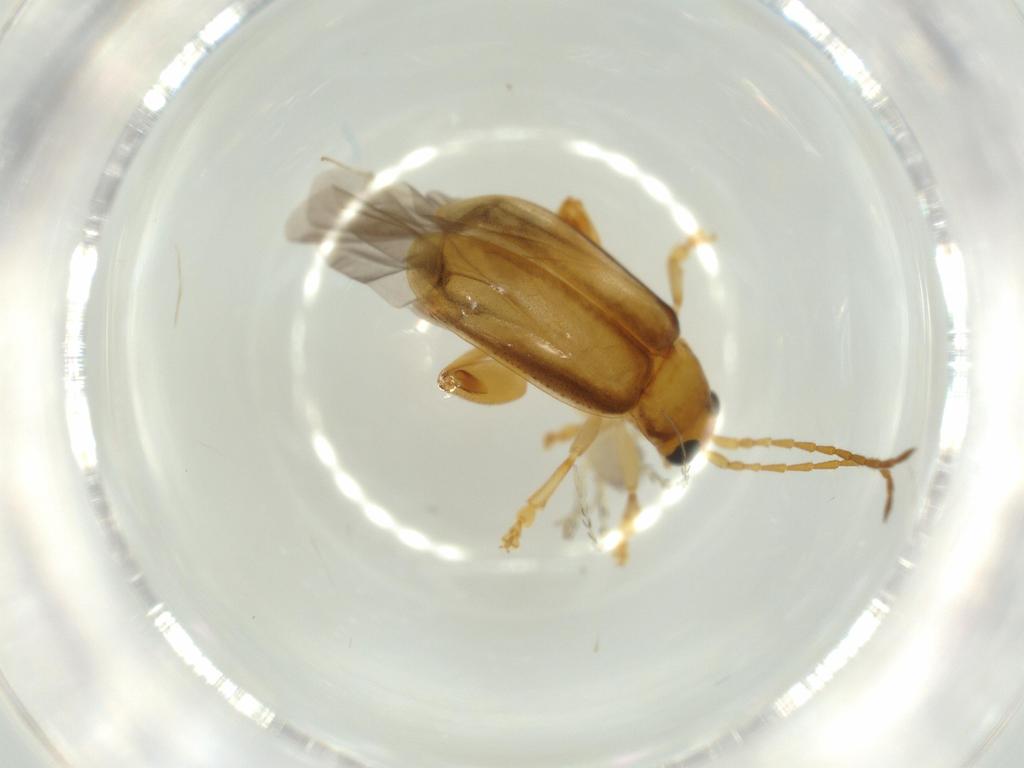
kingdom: Animalia
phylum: Arthropoda
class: Insecta
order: Coleoptera
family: Chrysomelidae
